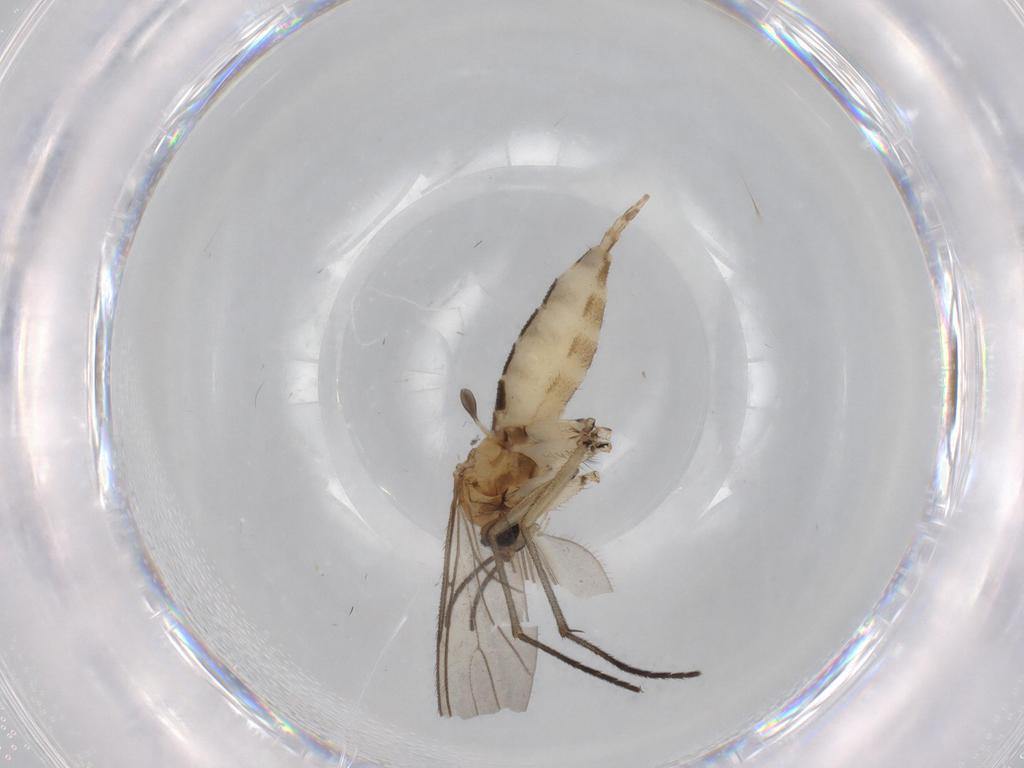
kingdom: Animalia
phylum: Arthropoda
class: Insecta
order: Diptera
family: Sciaridae
